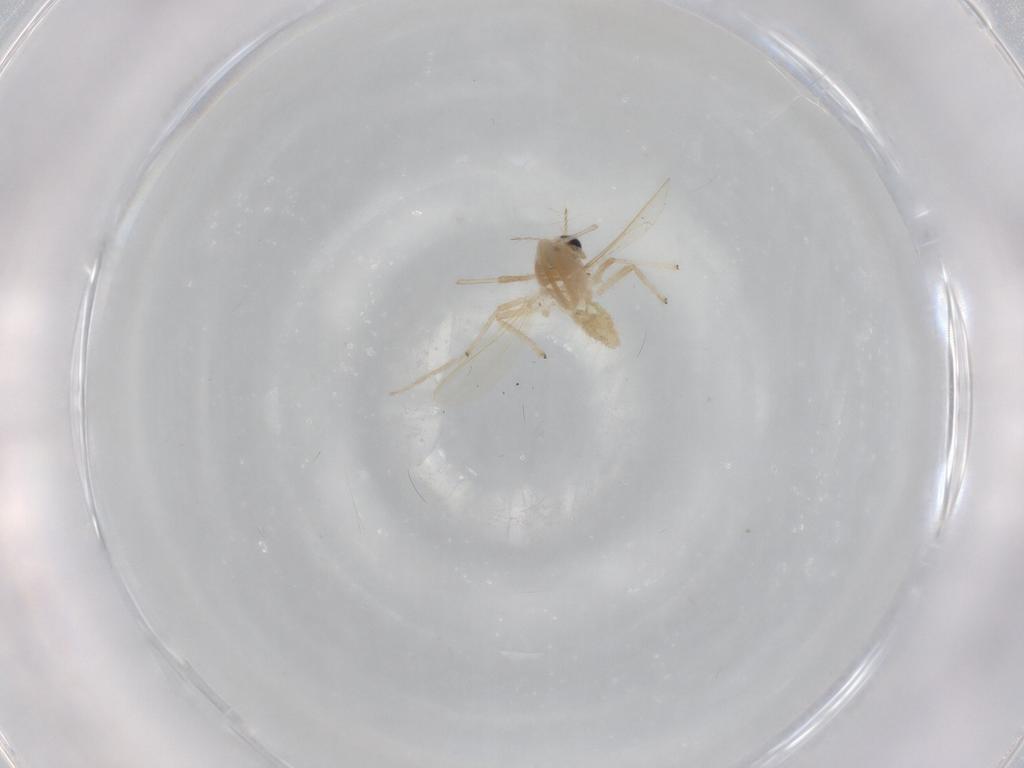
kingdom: Animalia
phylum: Arthropoda
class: Insecta
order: Diptera
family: Chironomidae
